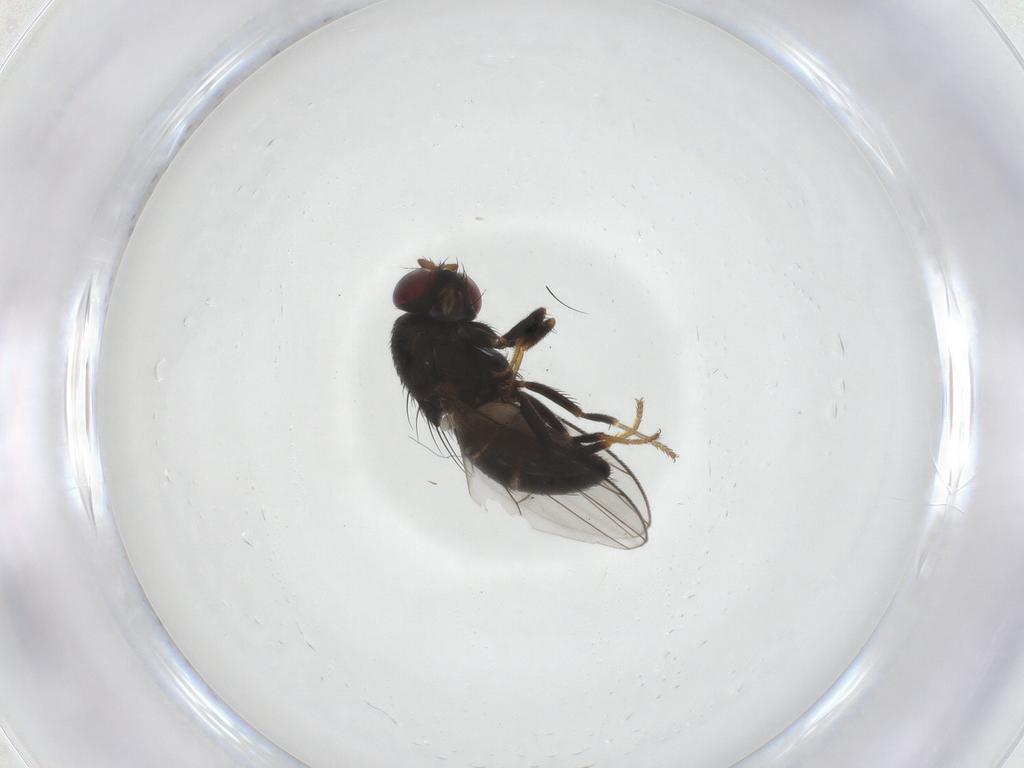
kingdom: Animalia
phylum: Arthropoda
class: Insecta
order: Diptera
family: Ephydridae
